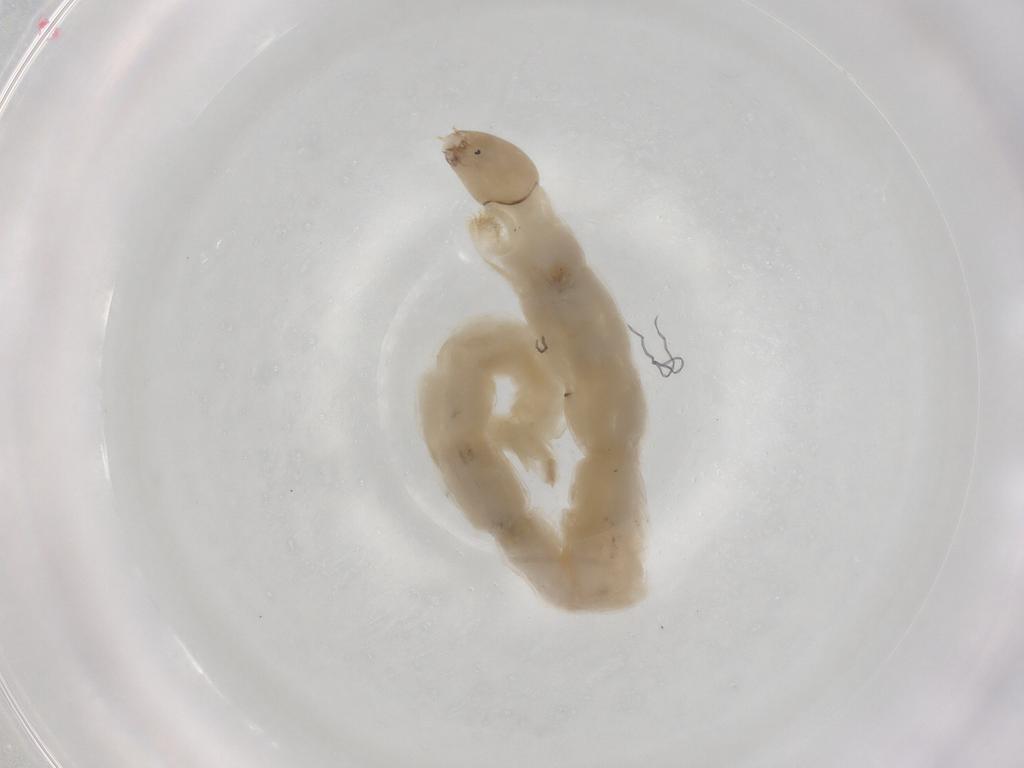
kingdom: Animalia
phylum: Arthropoda
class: Insecta
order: Diptera
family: Chironomidae
